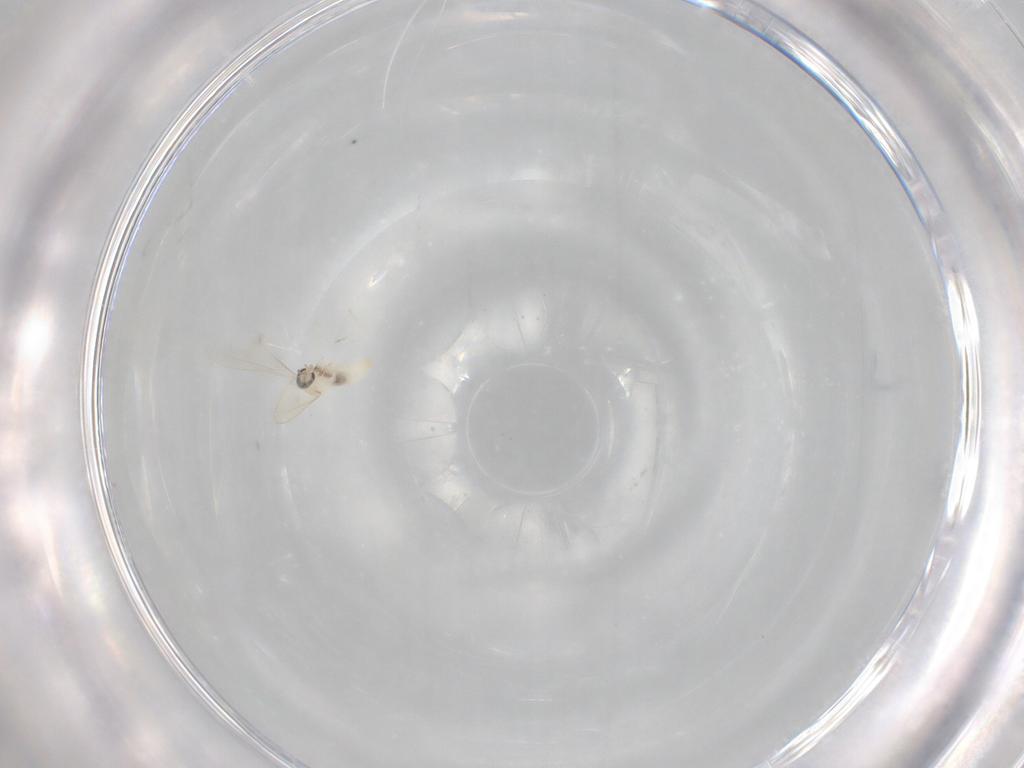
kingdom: Animalia
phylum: Arthropoda
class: Insecta
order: Diptera
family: Cecidomyiidae
